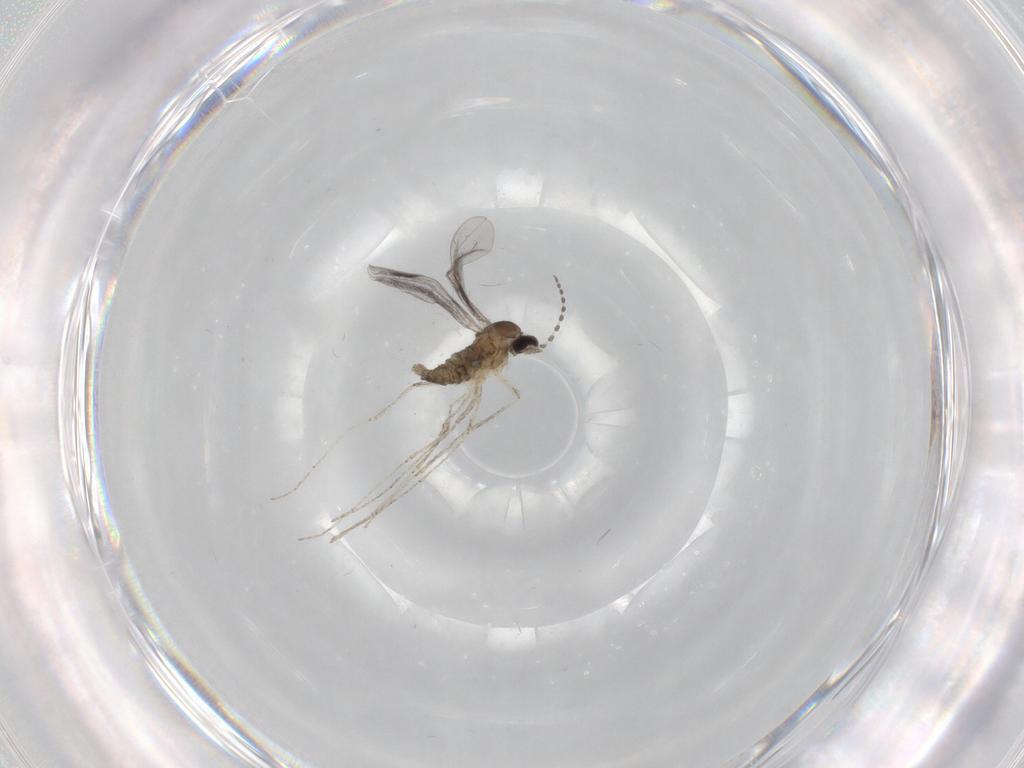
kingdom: Animalia
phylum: Arthropoda
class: Insecta
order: Diptera
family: Cecidomyiidae
